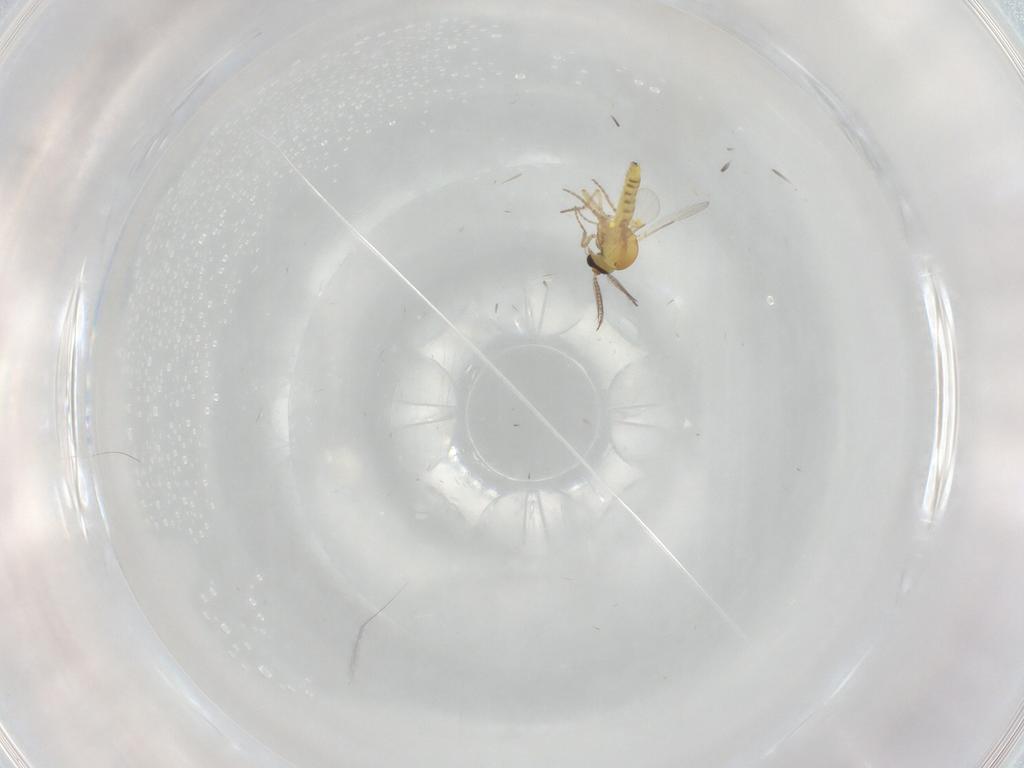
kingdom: Animalia
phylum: Arthropoda
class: Insecta
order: Diptera
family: Ceratopogonidae
